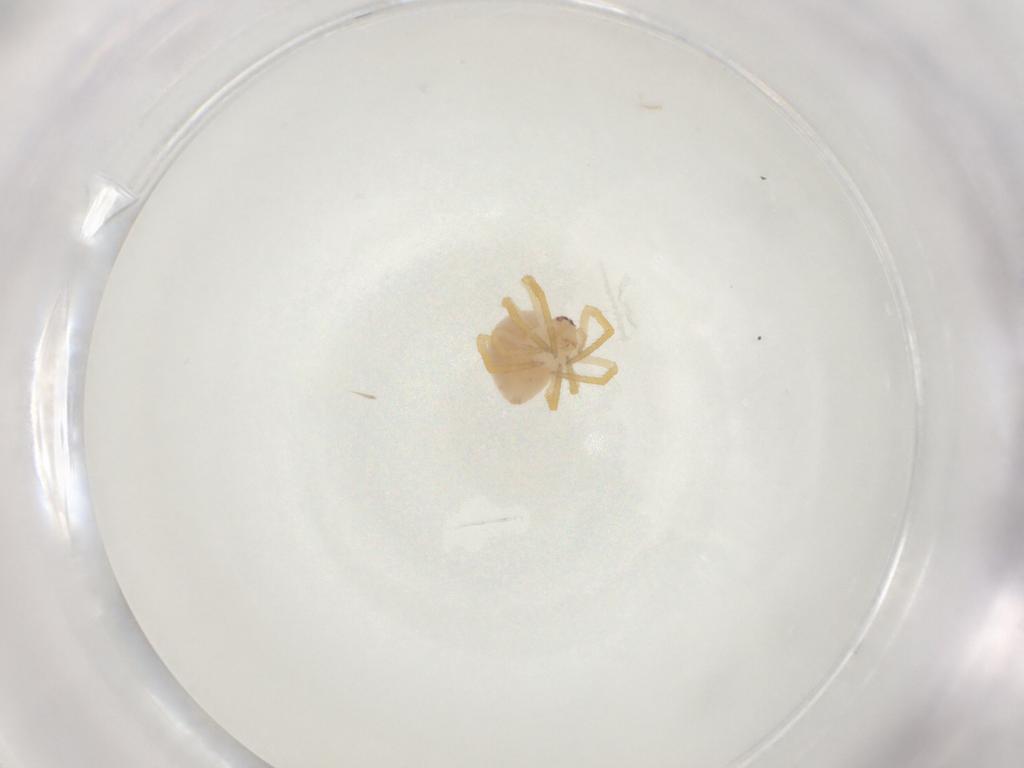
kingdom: Animalia
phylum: Arthropoda
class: Arachnida
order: Araneae
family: Theridiidae
